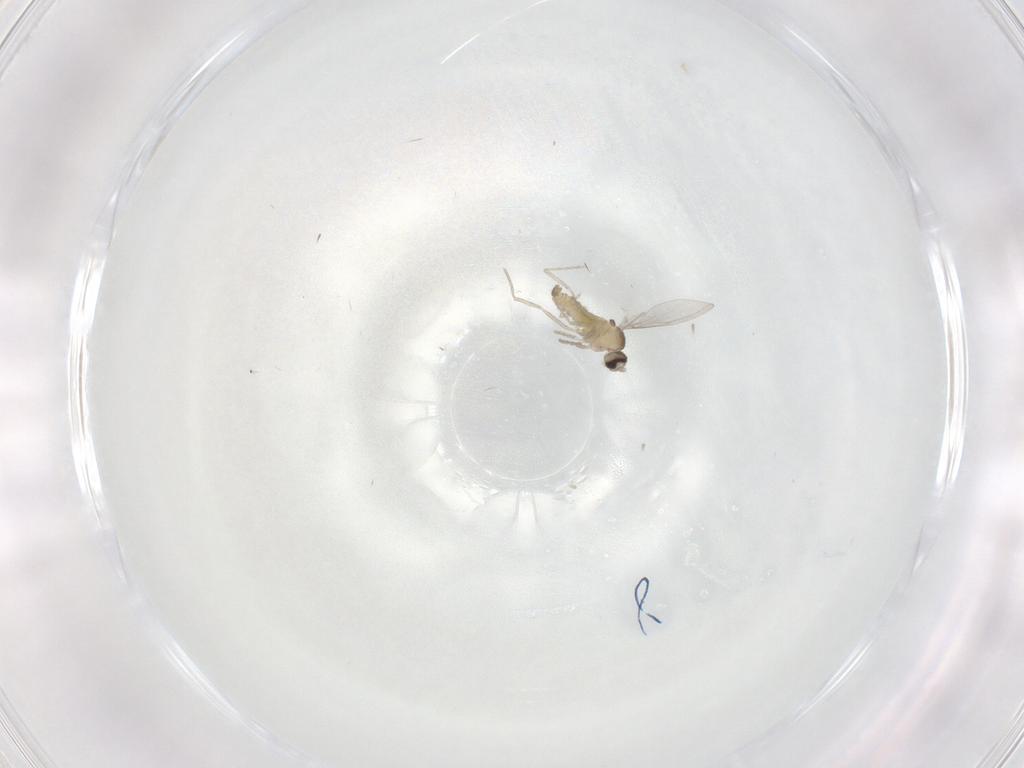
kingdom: Animalia
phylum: Arthropoda
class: Insecta
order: Diptera
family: Cecidomyiidae
